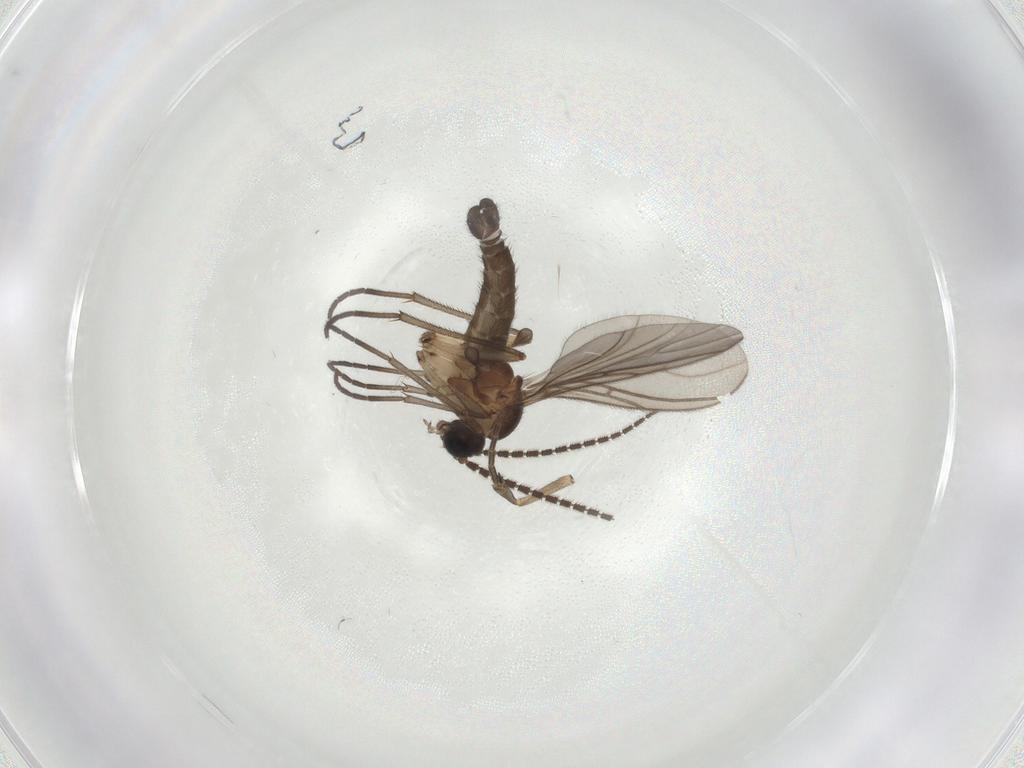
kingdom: Animalia
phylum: Arthropoda
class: Insecta
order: Diptera
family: Sciaridae
